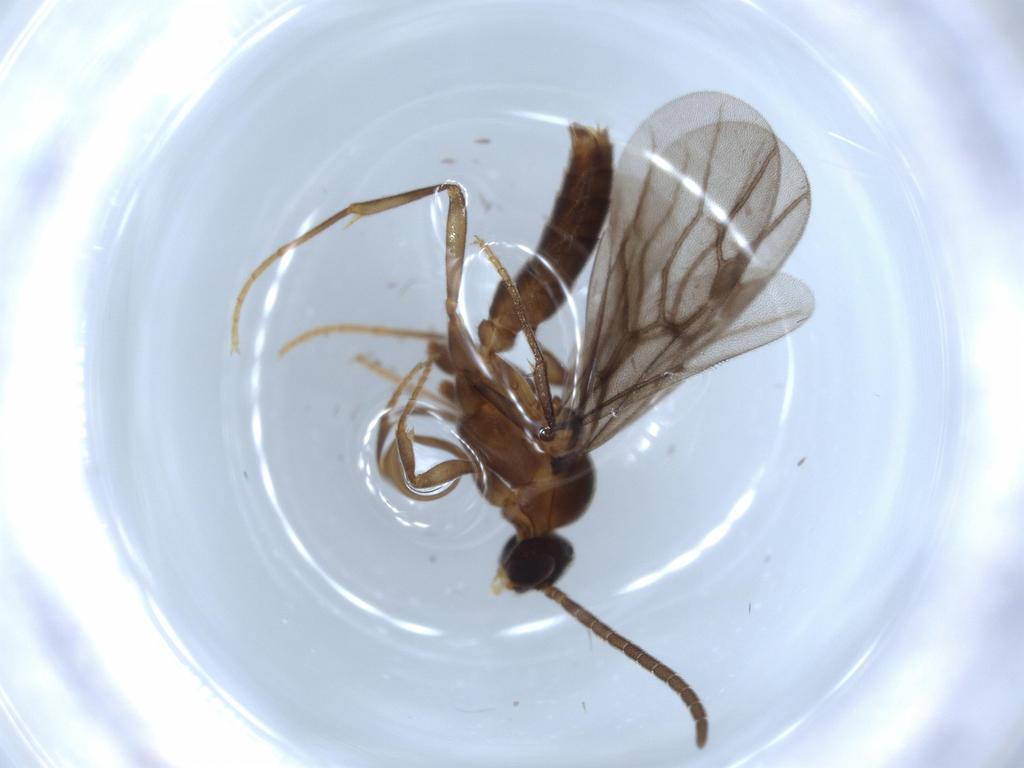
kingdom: Animalia
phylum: Arthropoda
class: Insecta
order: Hymenoptera
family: Formicidae
